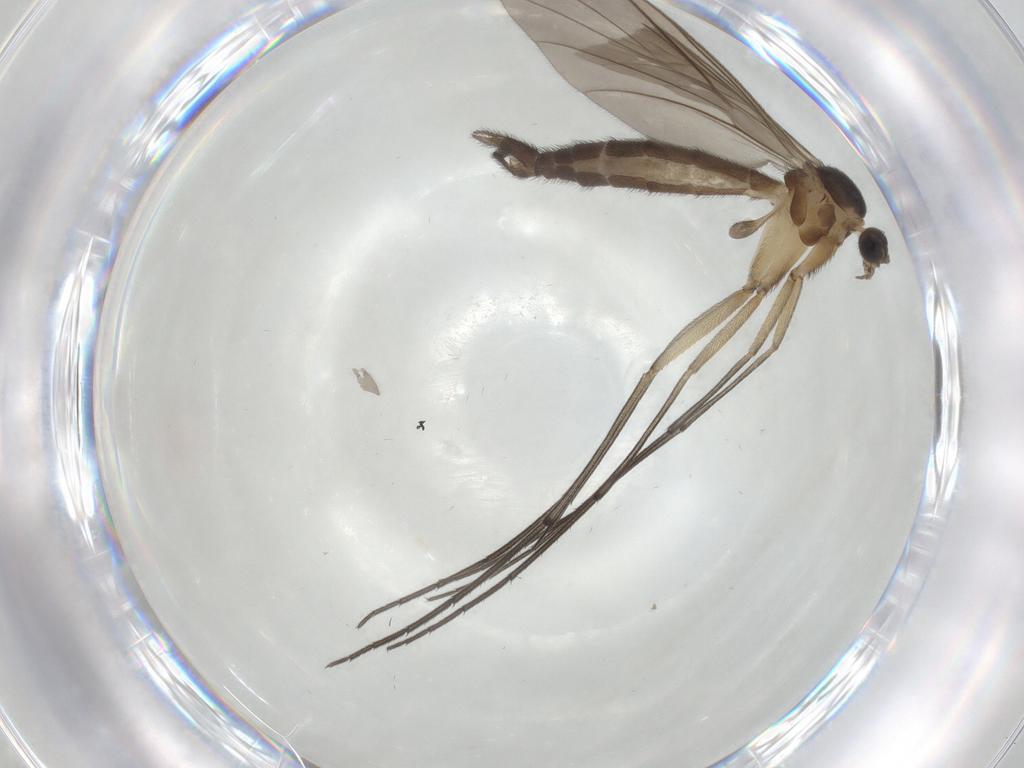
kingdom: Animalia
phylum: Arthropoda
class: Insecta
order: Diptera
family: Keroplatidae
